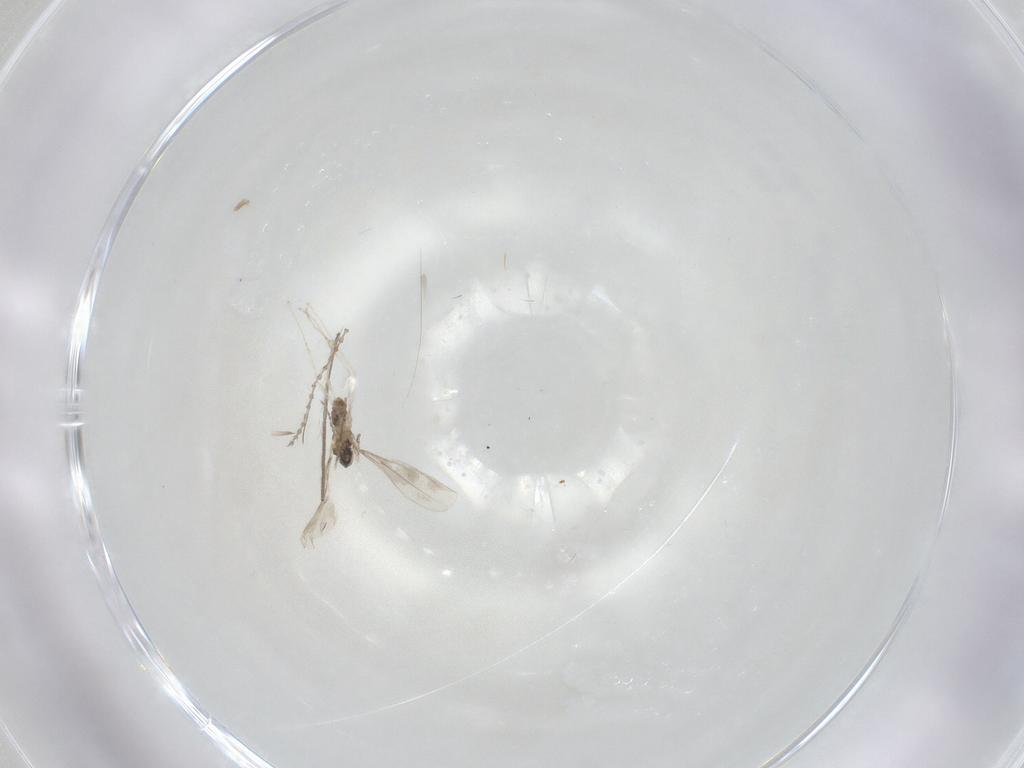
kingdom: Animalia
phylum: Arthropoda
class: Insecta
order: Diptera
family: Cecidomyiidae
